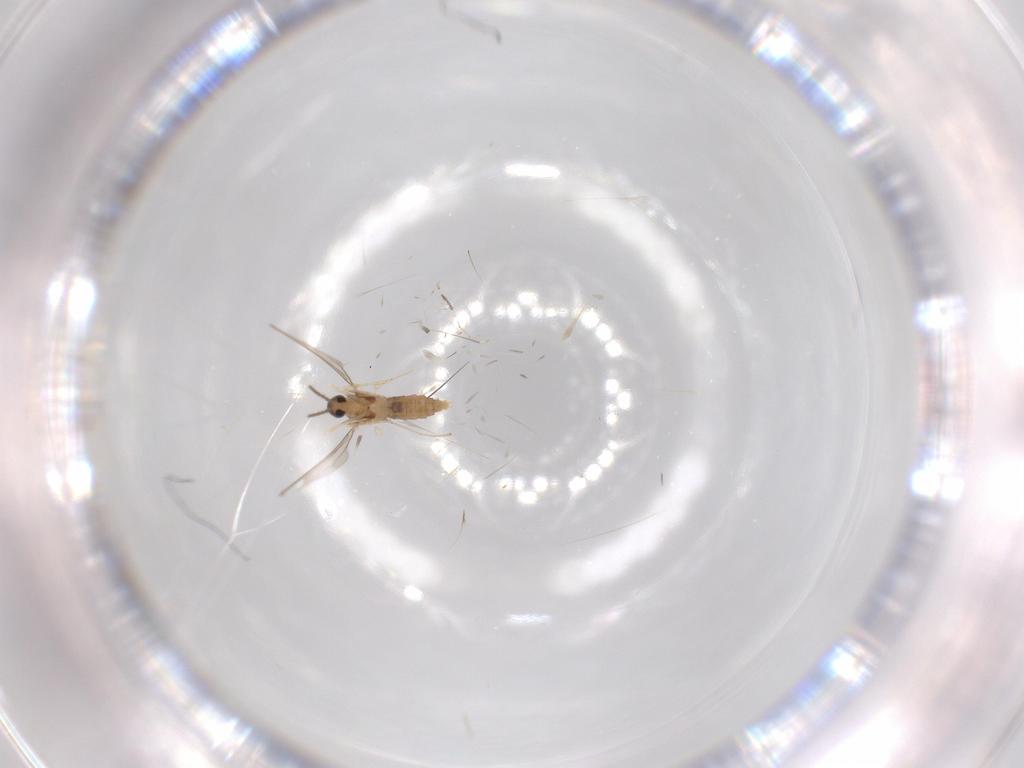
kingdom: Animalia
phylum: Arthropoda
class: Insecta
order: Diptera
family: Cecidomyiidae
